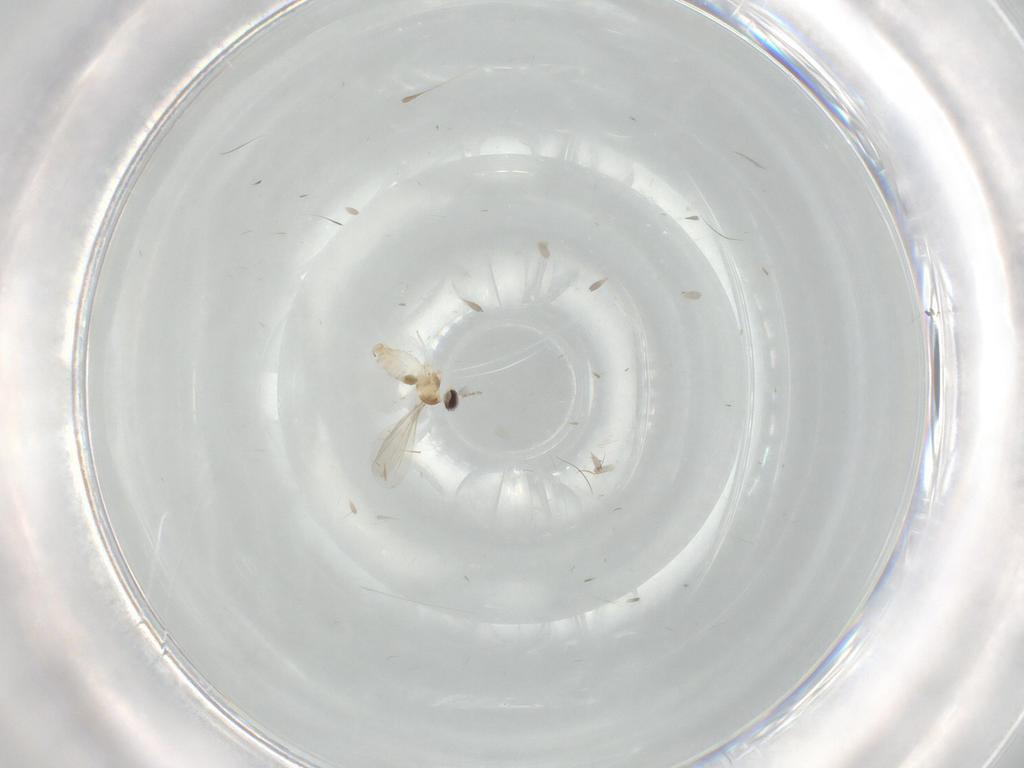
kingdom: Animalia
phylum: Arthropoda
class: Insecta
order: Diptera
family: Cecidomyiidae
